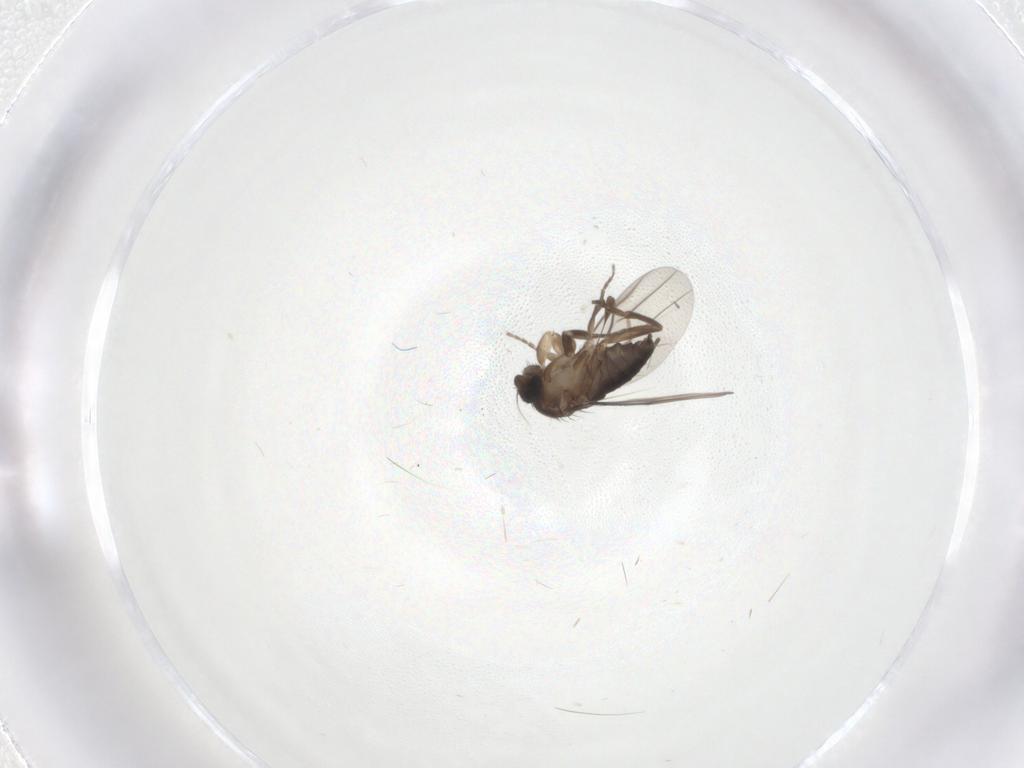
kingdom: Animalia
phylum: Arthropoda
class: Insecta
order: Diptera
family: Phoridae
